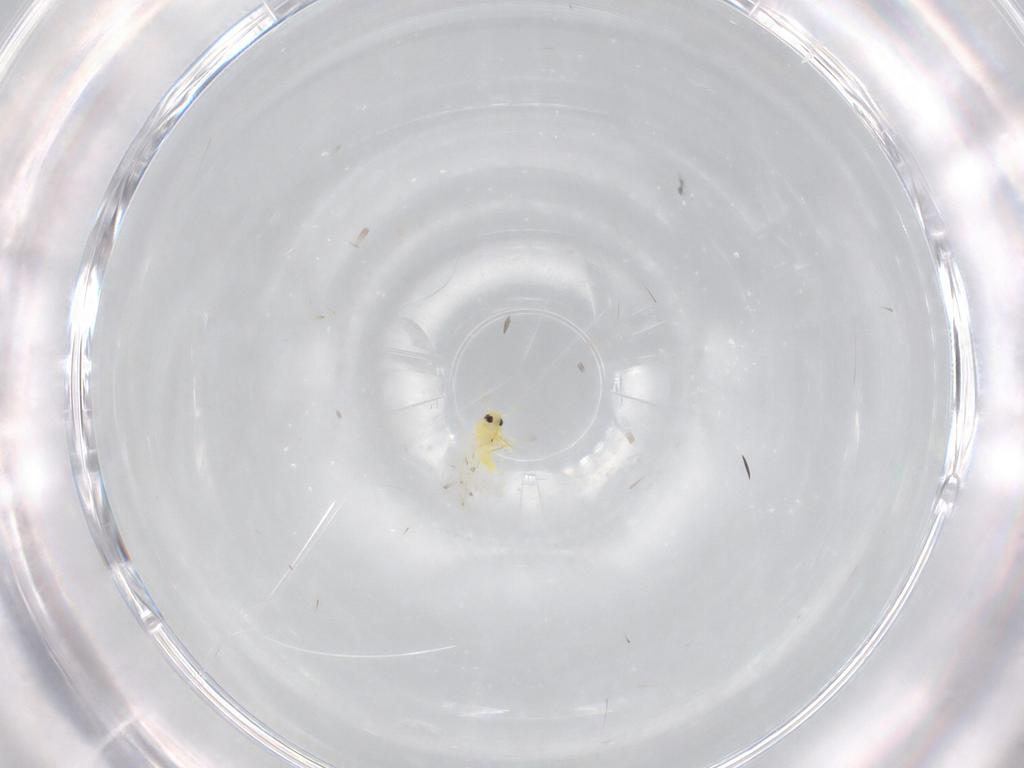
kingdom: Animalia
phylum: Arthropoda
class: Insecta
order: Hemiptera
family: Aleyrodidae
